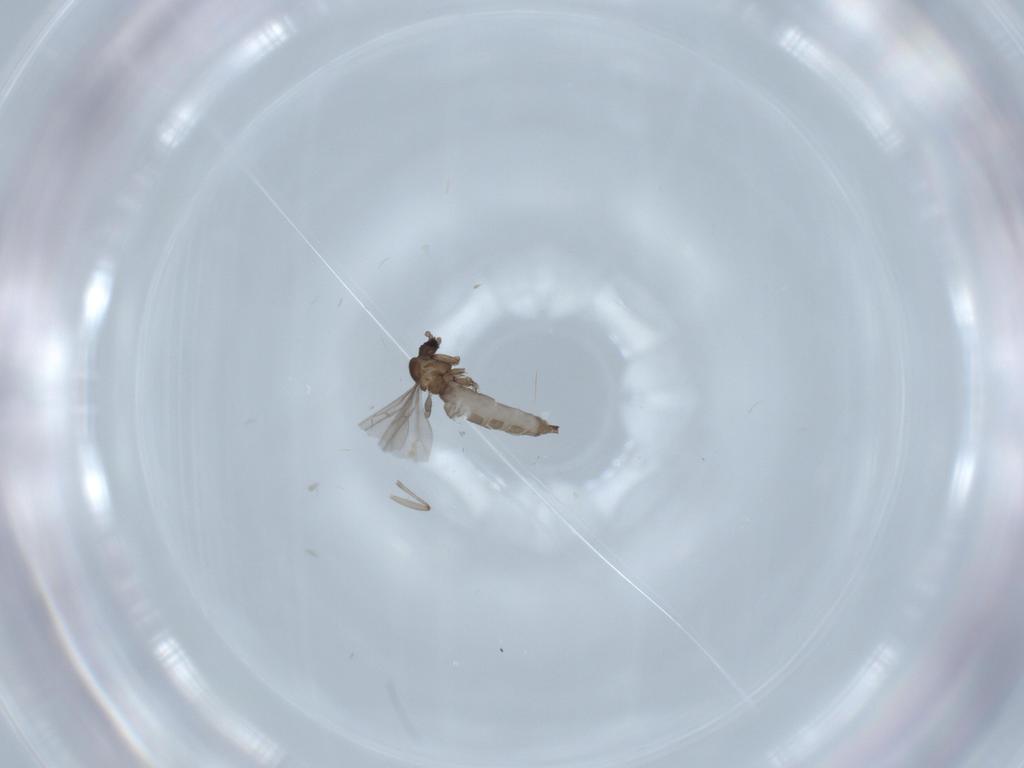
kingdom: Animalia
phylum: Arthropoda
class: Insecta
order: Diptera
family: Sciaridae
